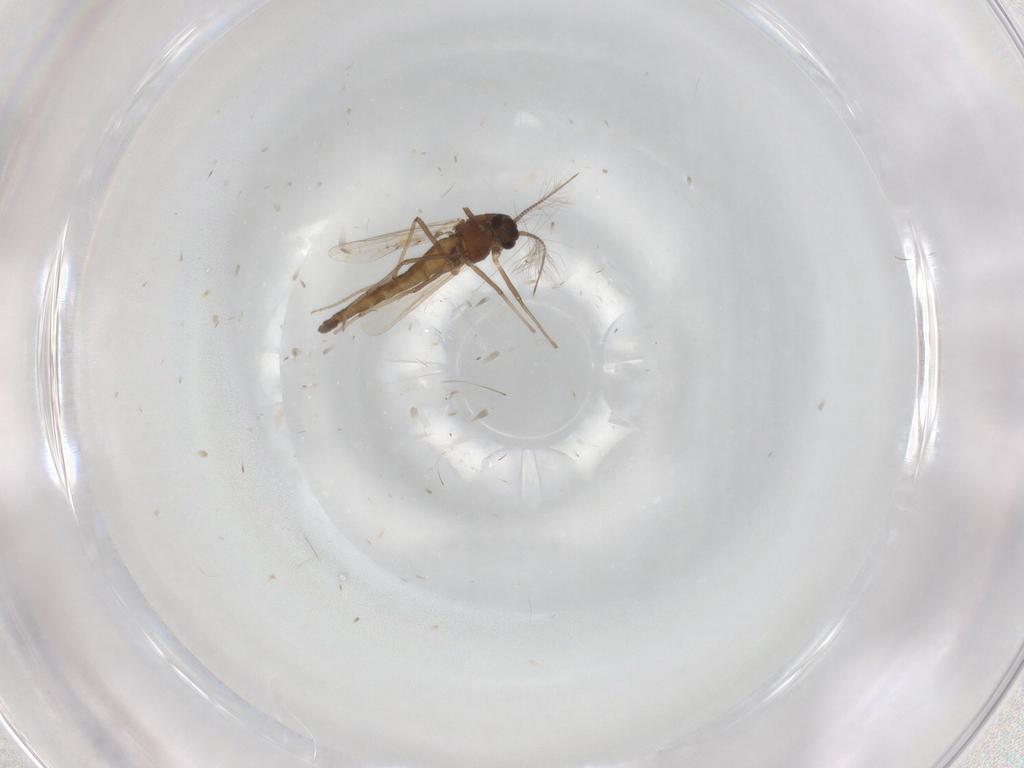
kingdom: Animalia
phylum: Arthropoda
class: Insecta
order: Diptera
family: Chironomidae
